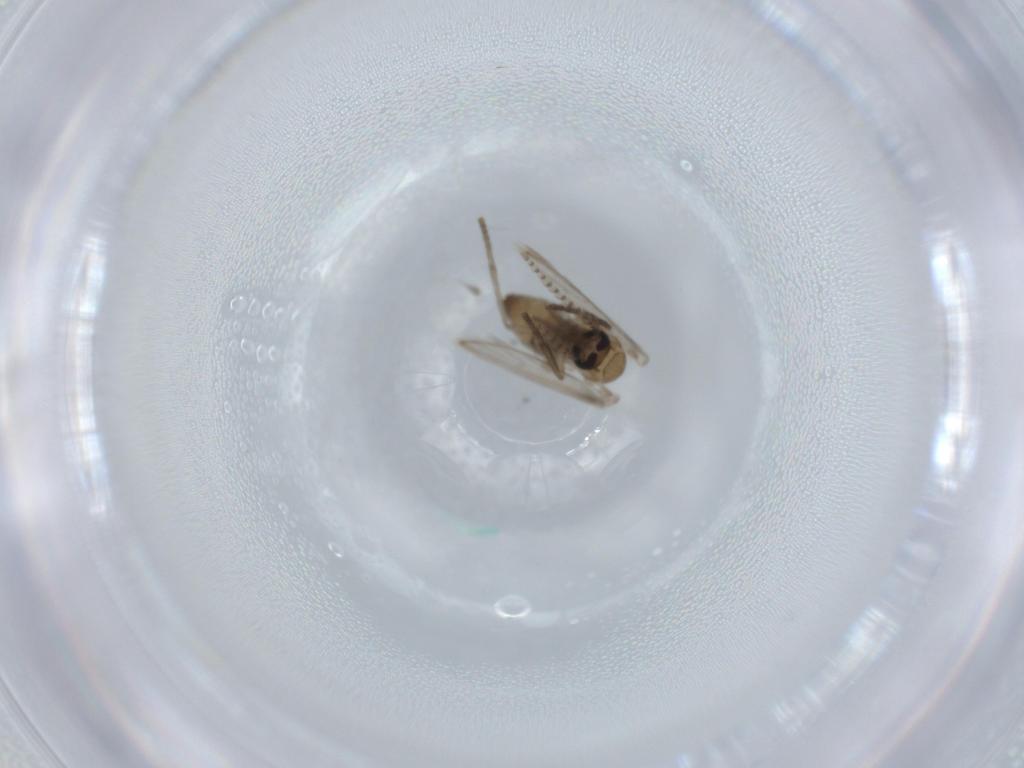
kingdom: Animalia
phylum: Arthropoda
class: Insecta
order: Diptera
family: Psychodidae
